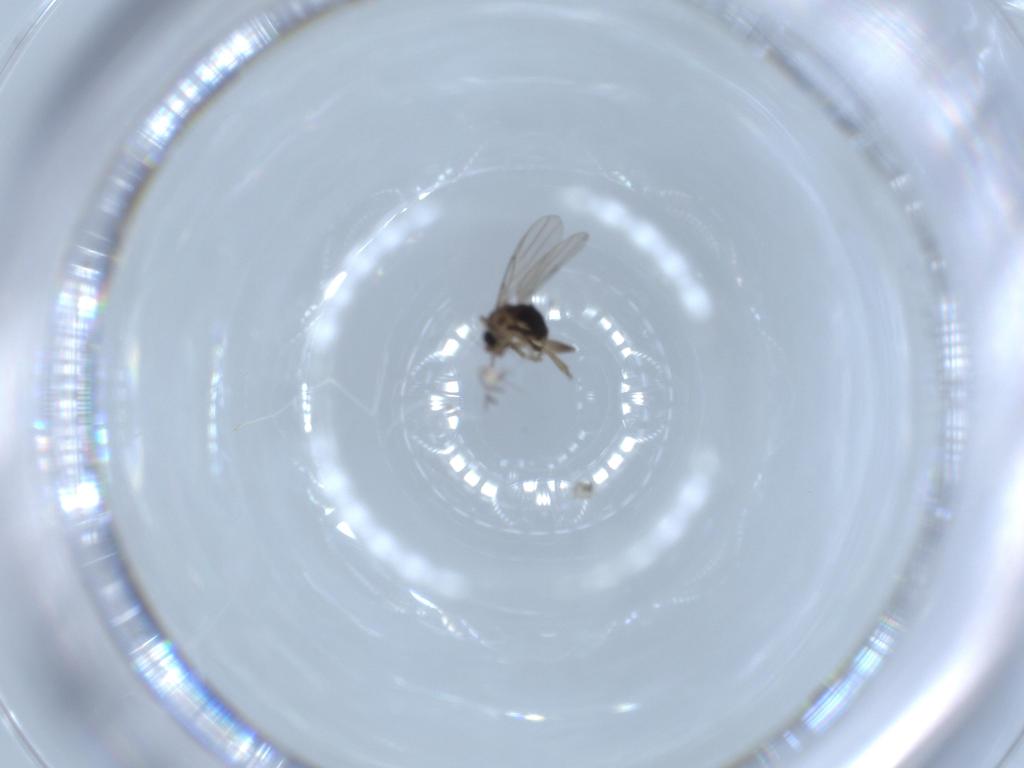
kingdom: Animalia
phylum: Arthropoda
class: Insecta
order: Diptera
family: Phoridae
